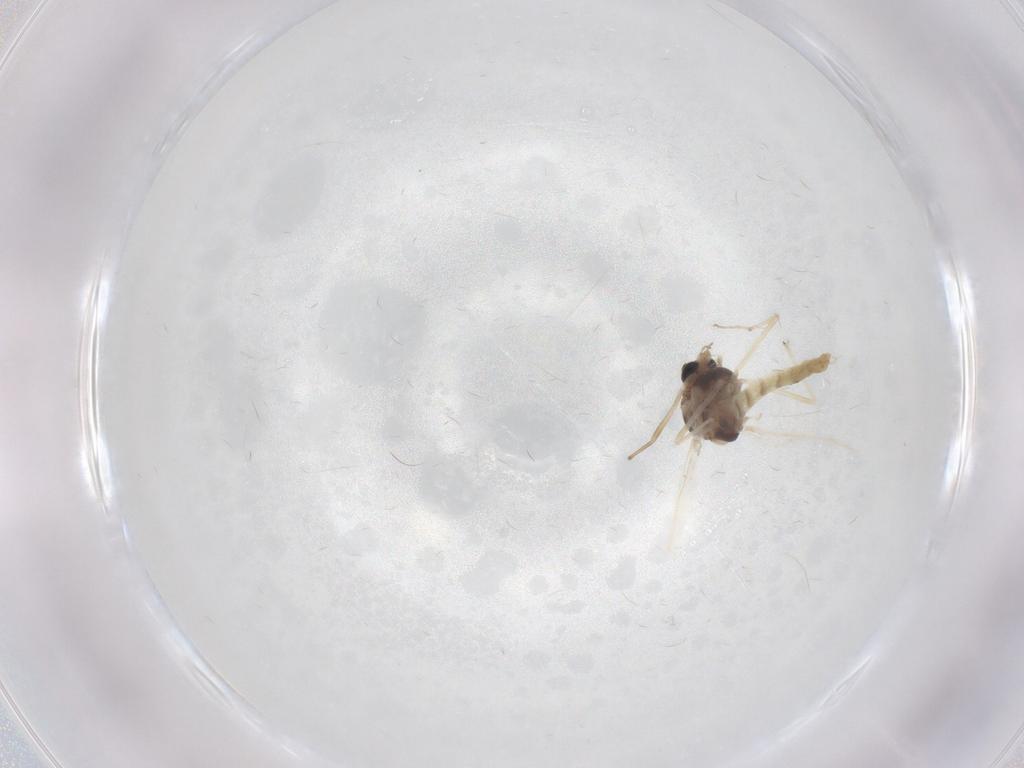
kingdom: Animalia
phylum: Arthropoda
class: Insecta
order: Diptera
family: Chironomidae
